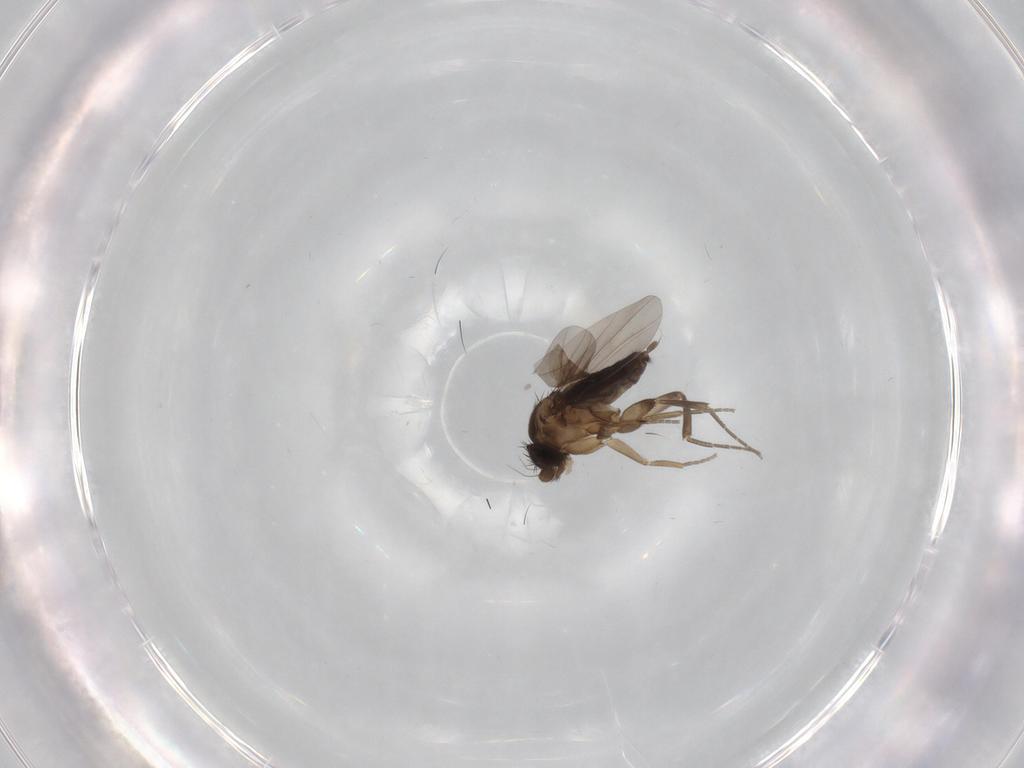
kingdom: Animalia
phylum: Arthropoda
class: Insecta
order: Diptera
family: Phoridae
